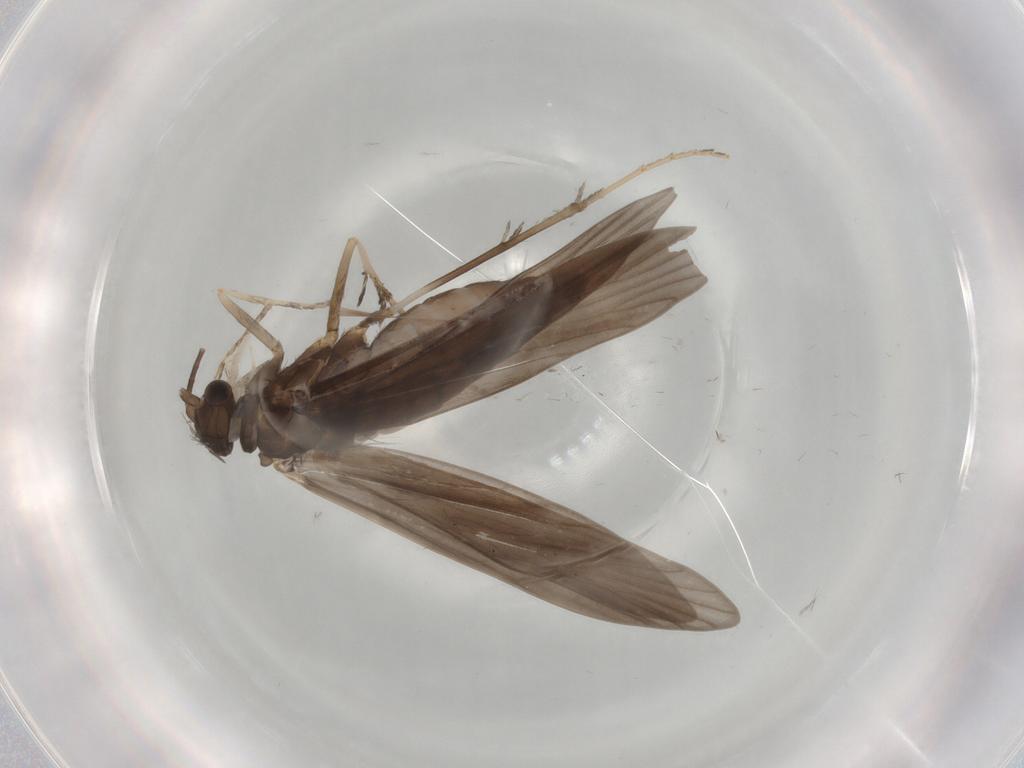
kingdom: Animalia
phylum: Arthropoda
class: Insecta
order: Trichoptera
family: Xiphocentronidae
